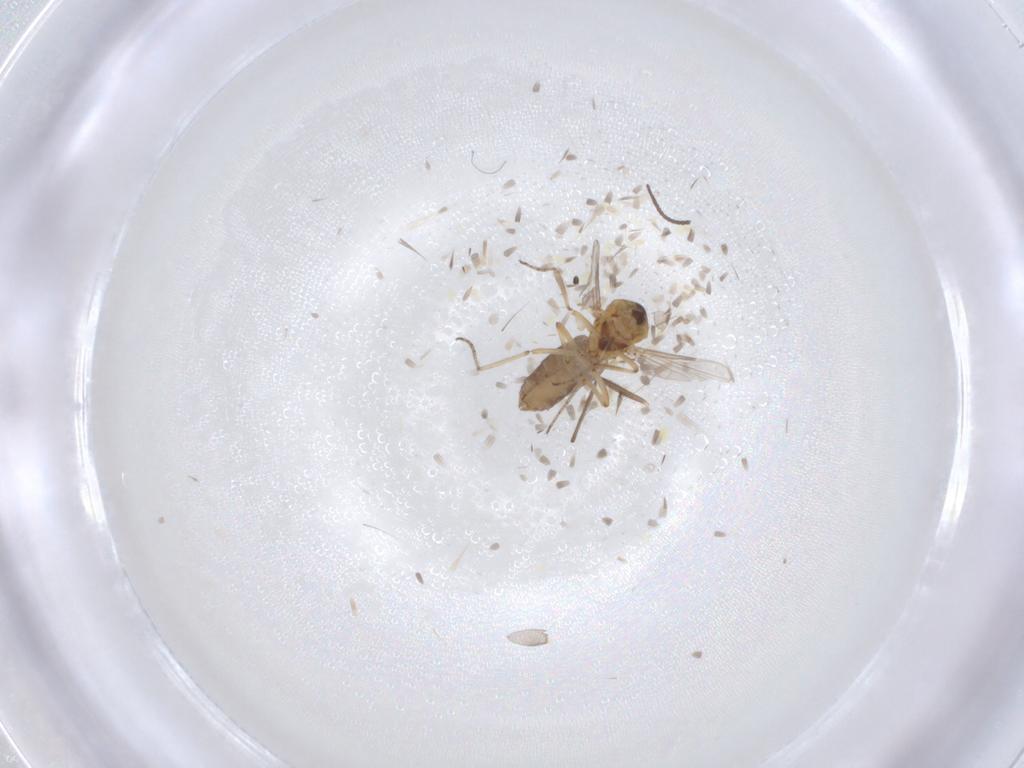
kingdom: Animalia
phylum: Arthropoda
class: Insecta
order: Diptera
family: Ceratopogonidae
